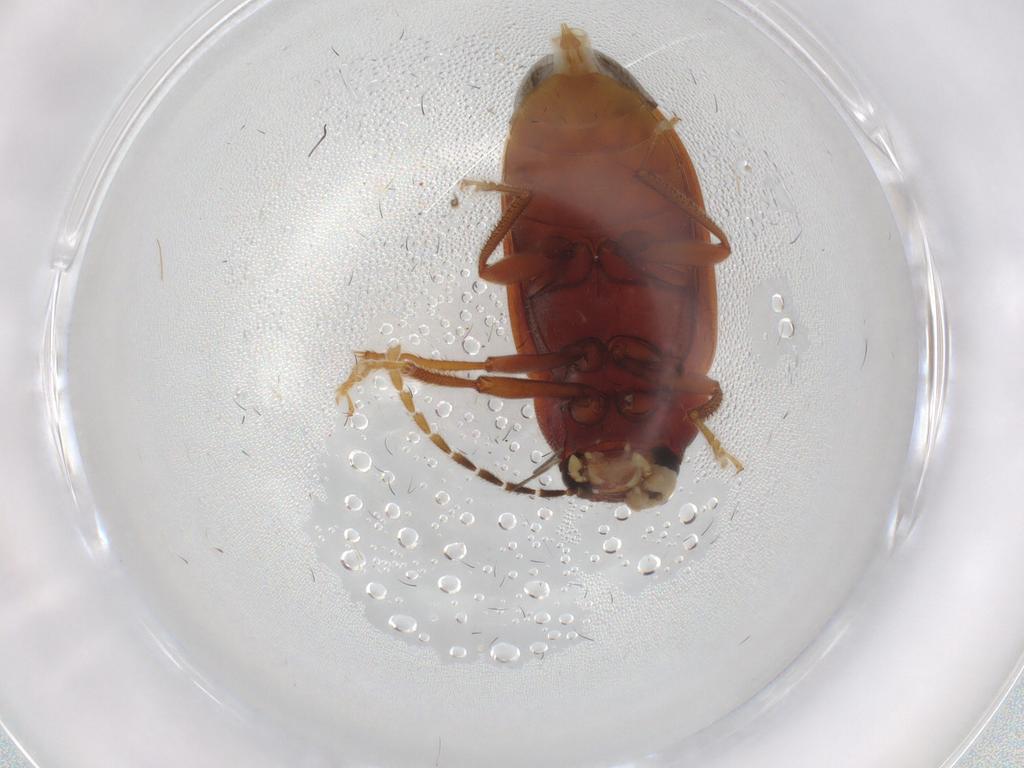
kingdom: Animalia
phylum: Arthropoda
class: Insecta
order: Coleoptera
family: Ptilodactylidae
